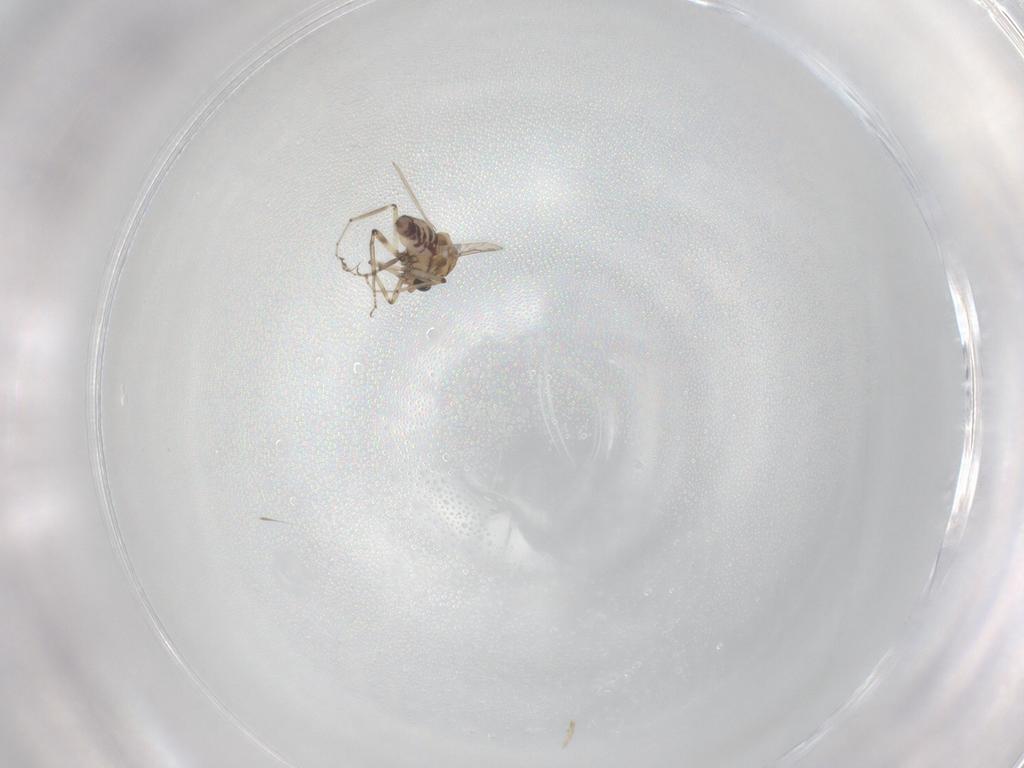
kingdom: Animalia
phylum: Arthropoda
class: Insecta
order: Diptera
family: Ceratopogonidae
